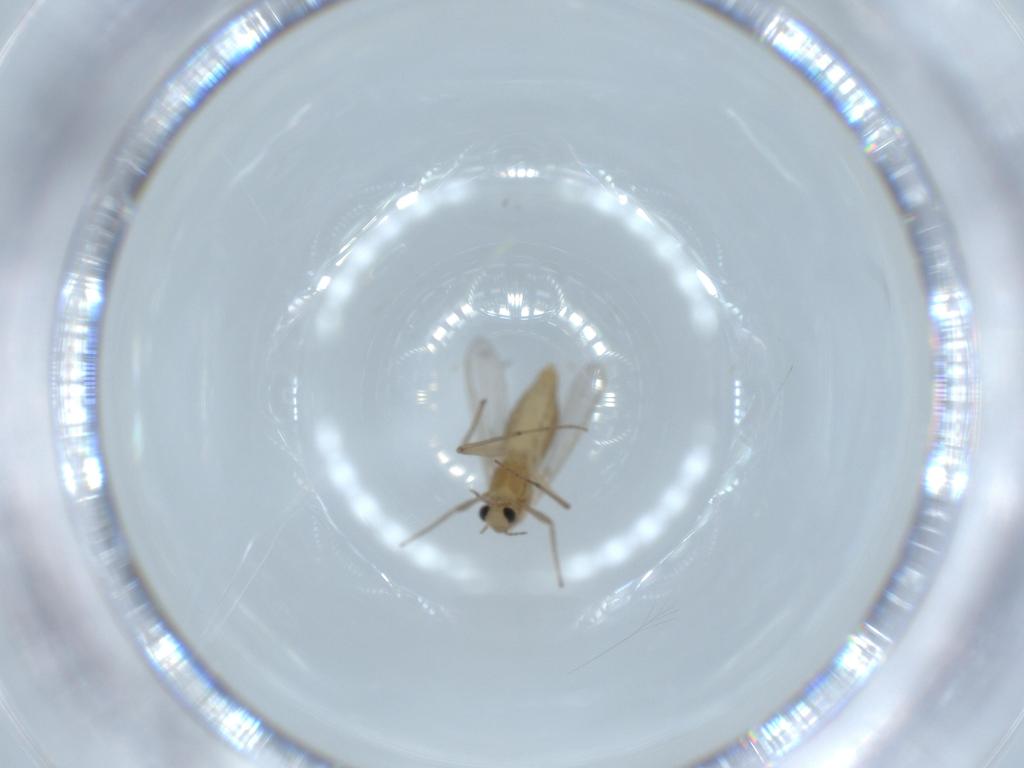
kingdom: Animalia
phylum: Arthropoda
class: Insecta
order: Diptera
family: Chironomidae
